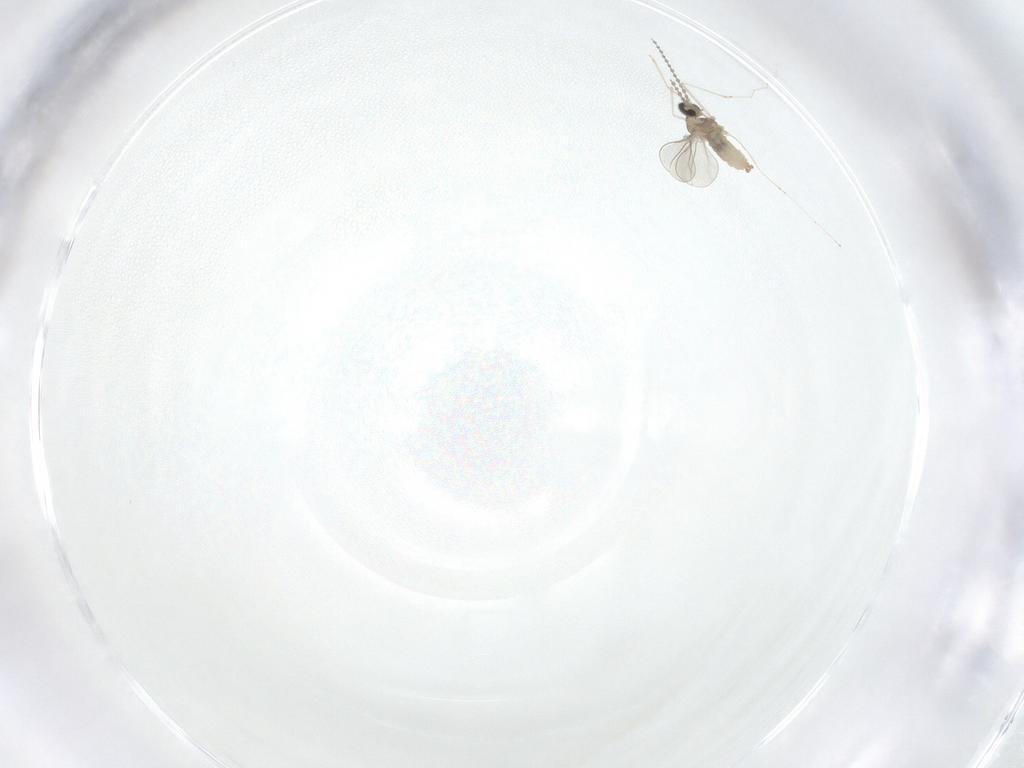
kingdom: Animalia
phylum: Arthropoda
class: Insecta
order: Diptera
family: Cecidomyiidae
